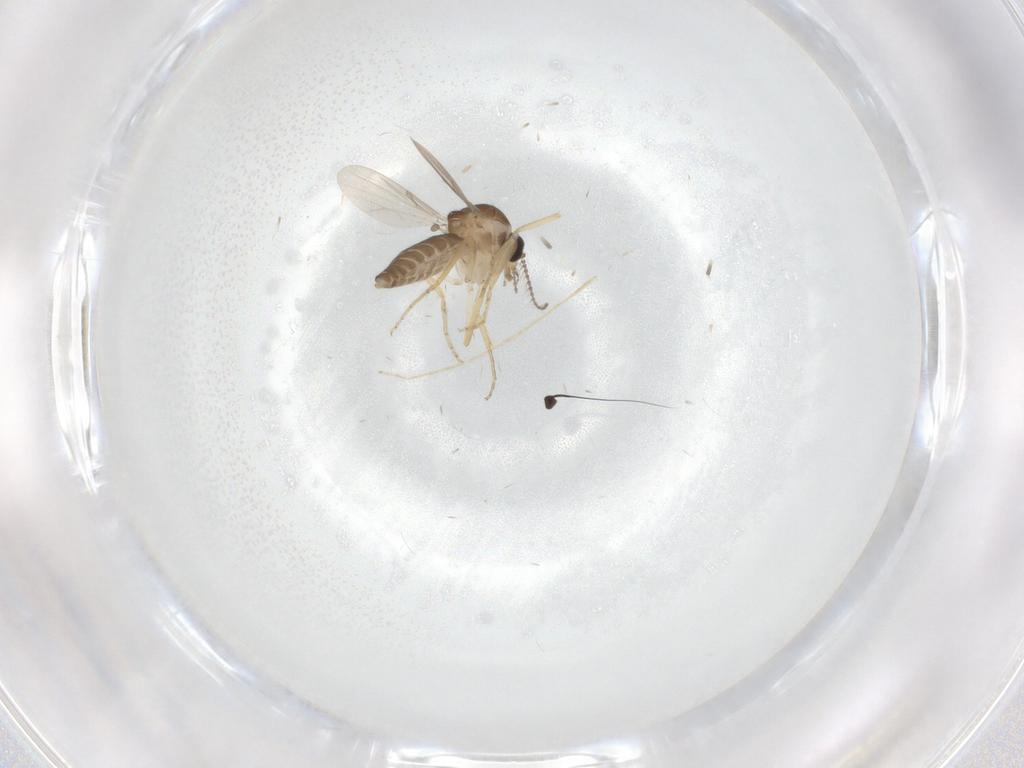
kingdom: Animalia
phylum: Arthropoda
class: Insecta
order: Diptera
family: Ceratopogonidae
